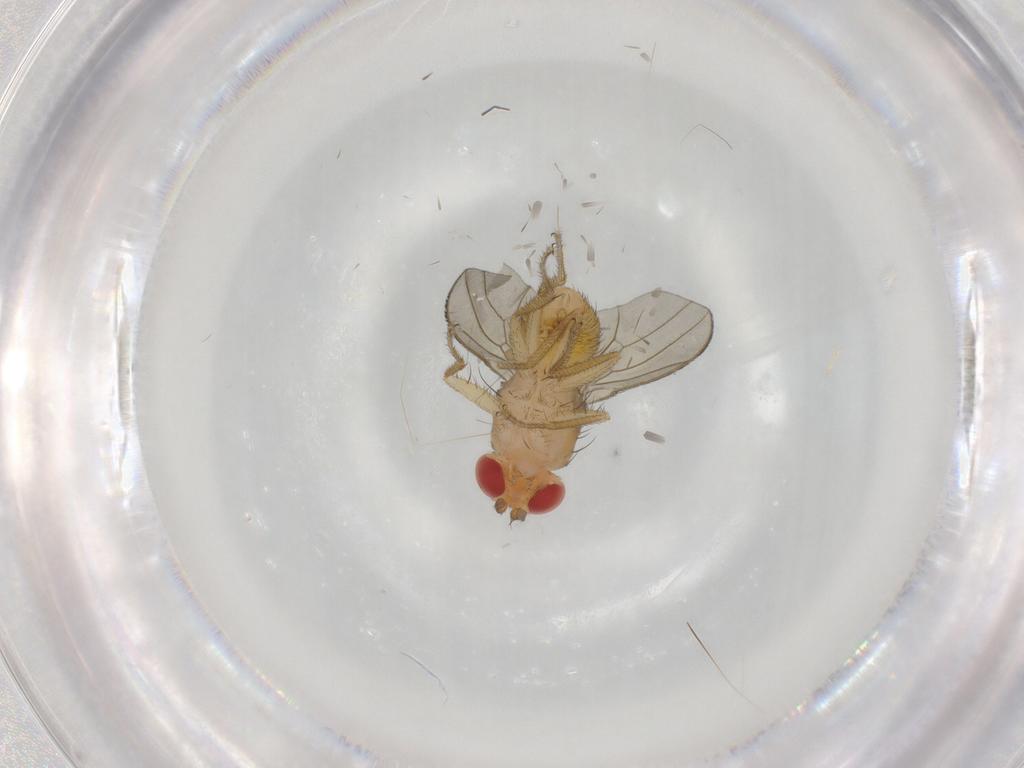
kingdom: Animalia
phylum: Arthropoda
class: Insecta
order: Diptera
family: Drosophilidae
